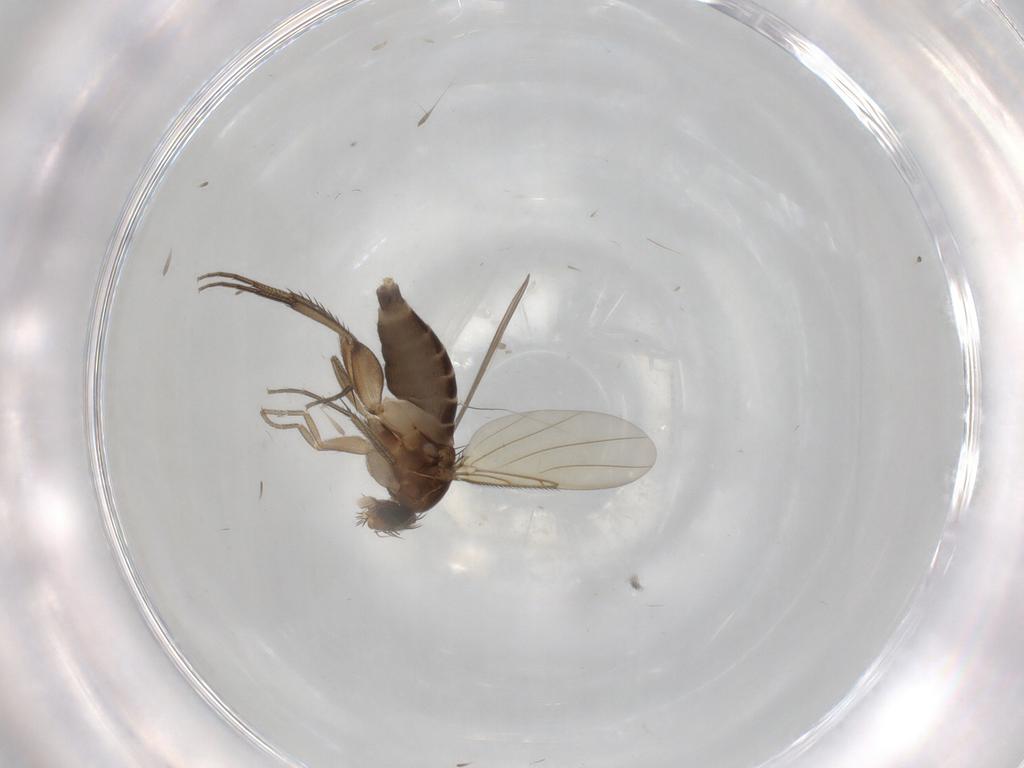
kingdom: Animalia
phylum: Arthropoda
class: Insecta
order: Diptera
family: Phoridae
